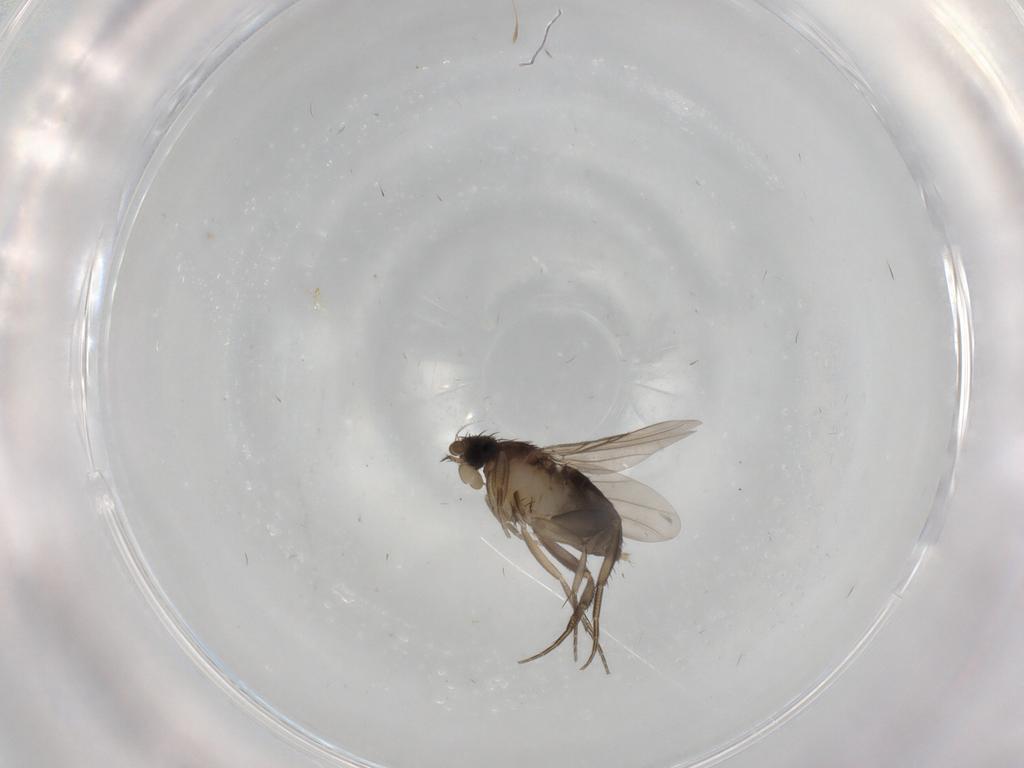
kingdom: Animalia
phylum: Arthropoda
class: Insecta
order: Diptera
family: Phoridae
